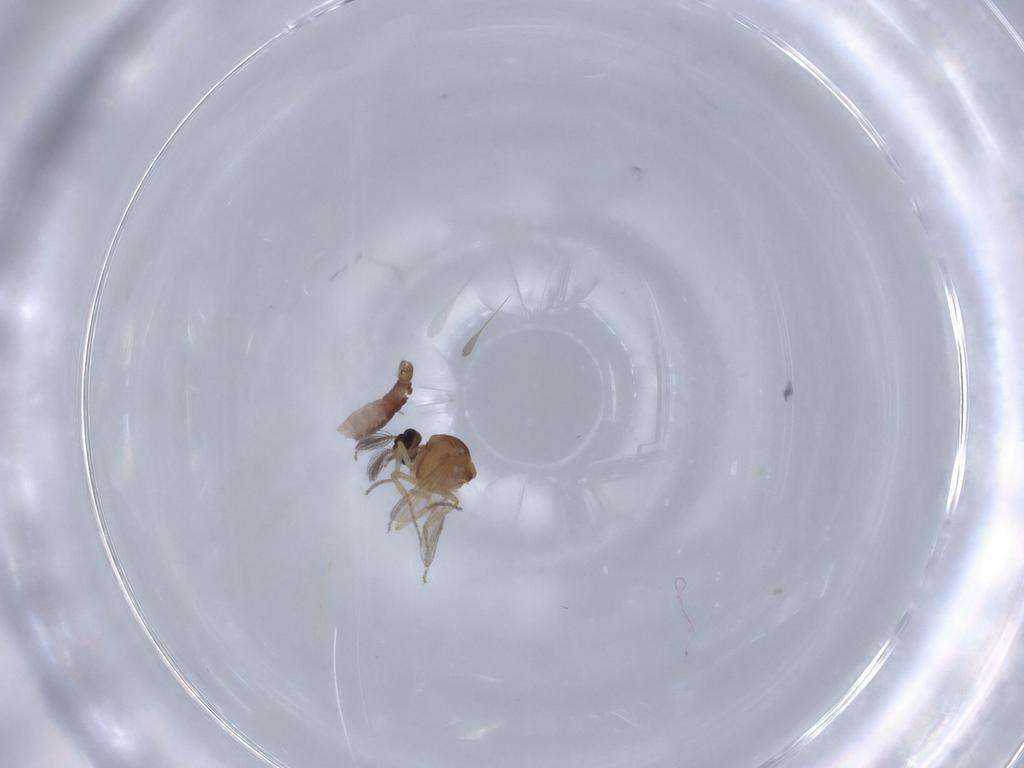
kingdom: Animalia
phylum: Arthropoda
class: Insecta
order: Diptera
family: Ceratopogonidae
